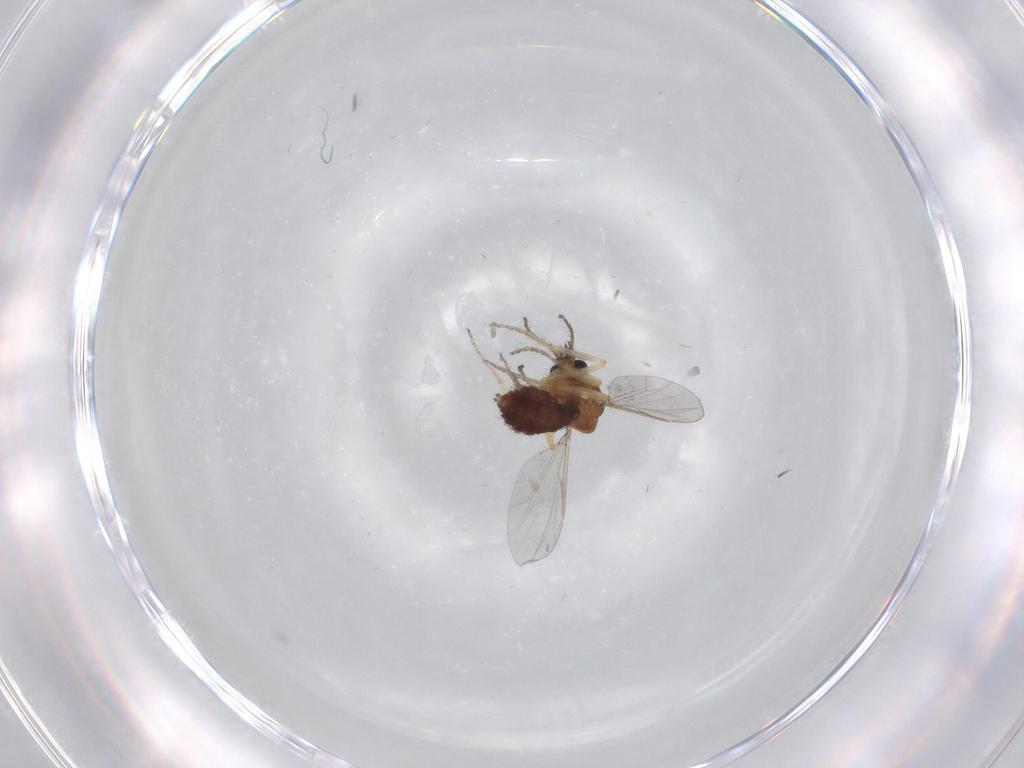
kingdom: Animalia
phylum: Arthropoda
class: Insecta
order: Diptera
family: Ceratopogonidae
